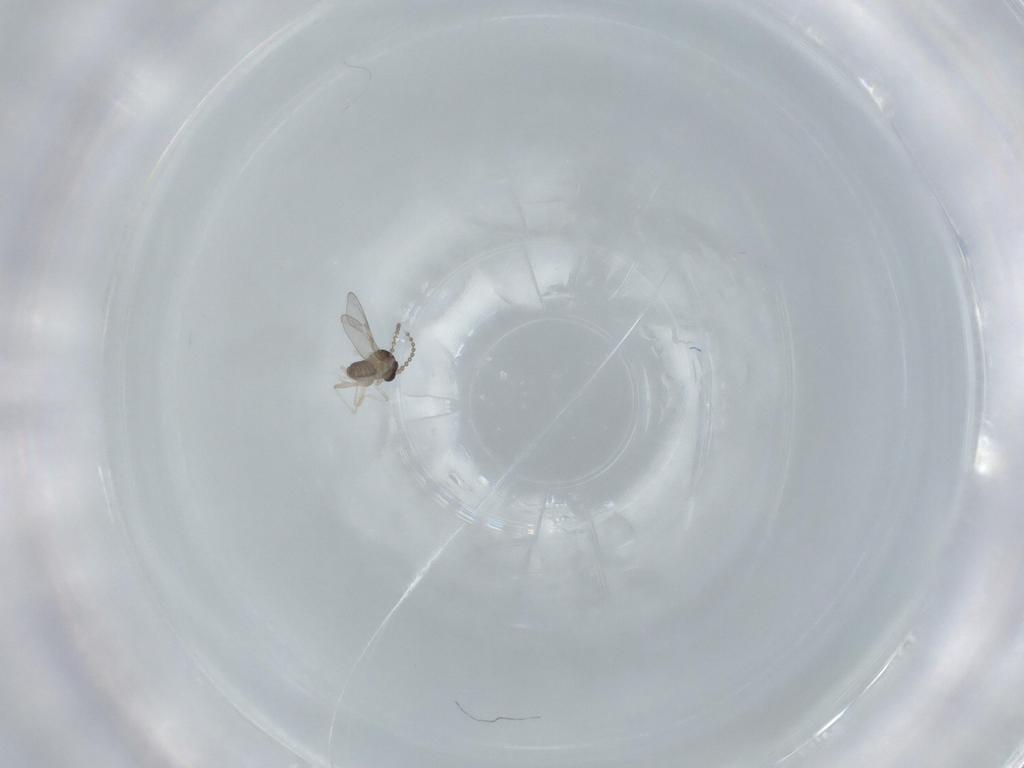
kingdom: Animalia
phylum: Arthropoda
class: Insecta
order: Diptera
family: Cecidomyiidae
